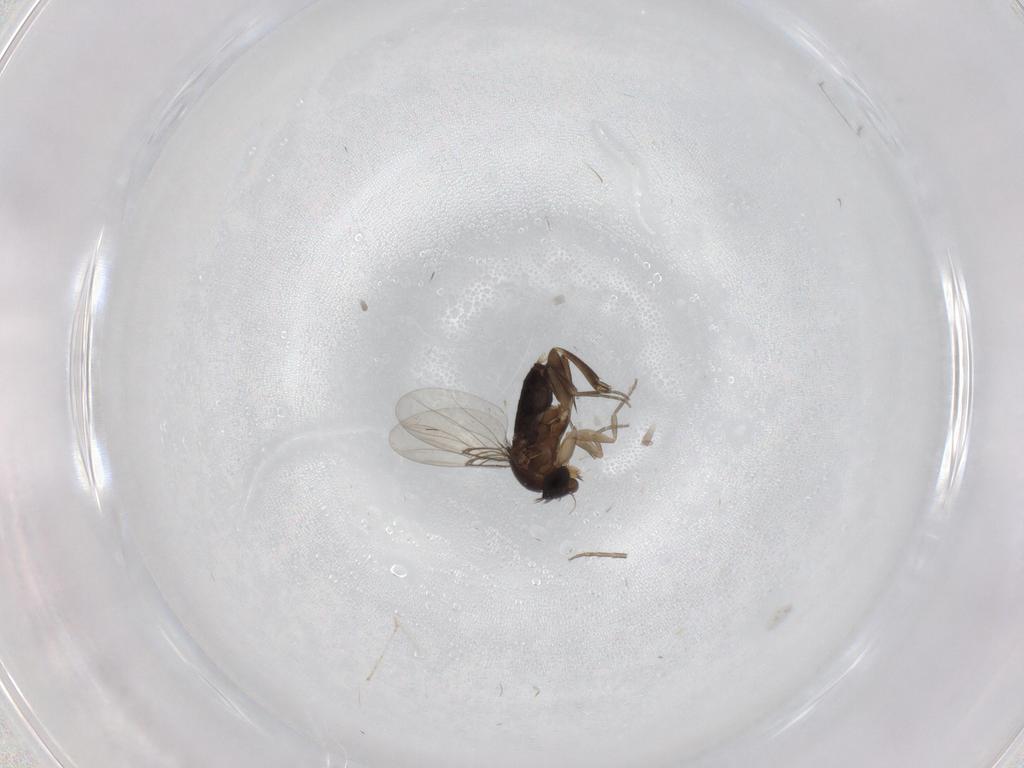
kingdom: Animalia
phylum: Arthropoda
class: Insecta
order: Diptera
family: Phoridae
